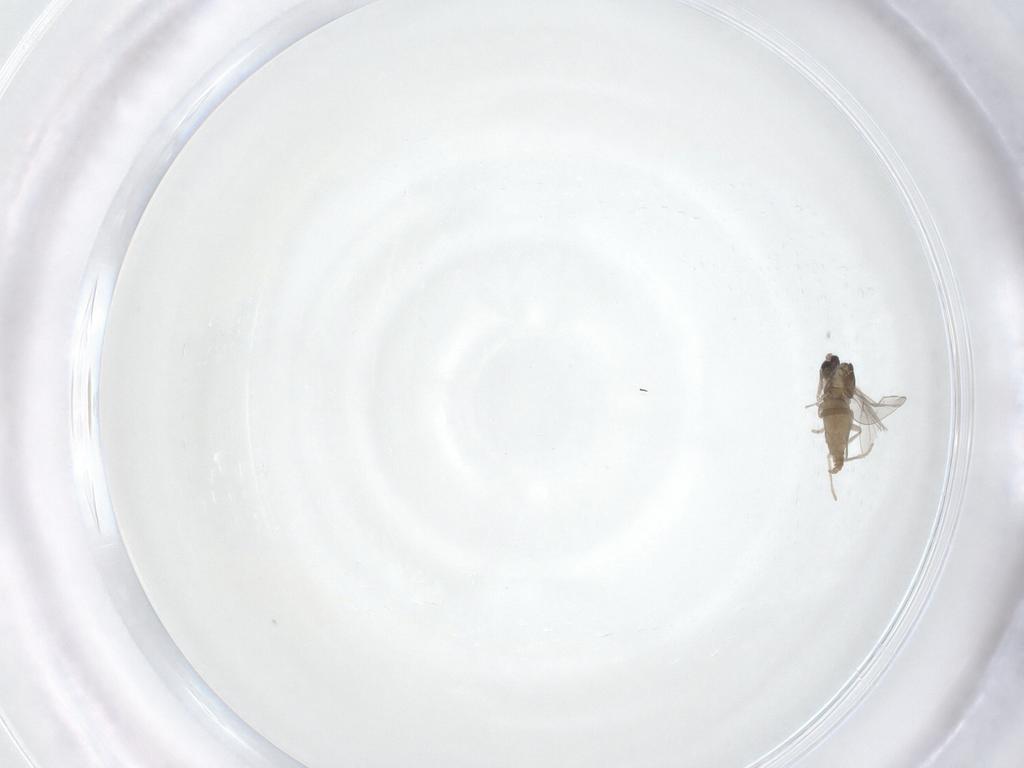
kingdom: Animalia
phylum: Arthropoda
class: Insecta
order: Diptera
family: Cecidomyiidae
